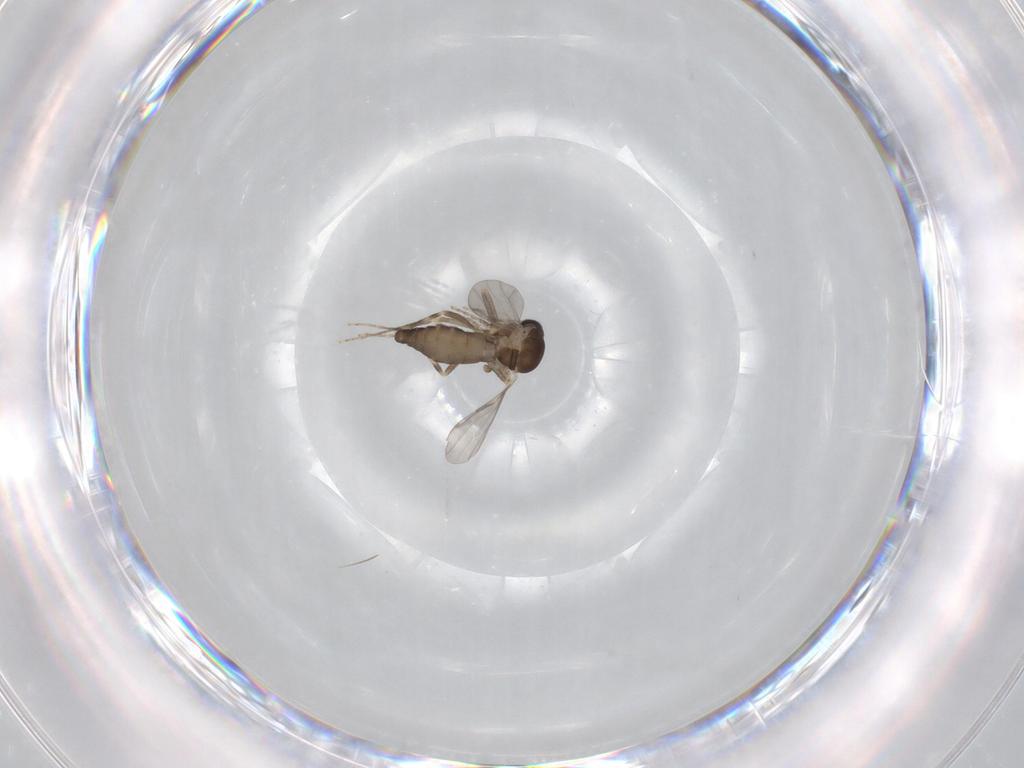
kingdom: Animalia
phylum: Arthropoda
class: Insecta
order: Diptera
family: Ceratopogonidae
